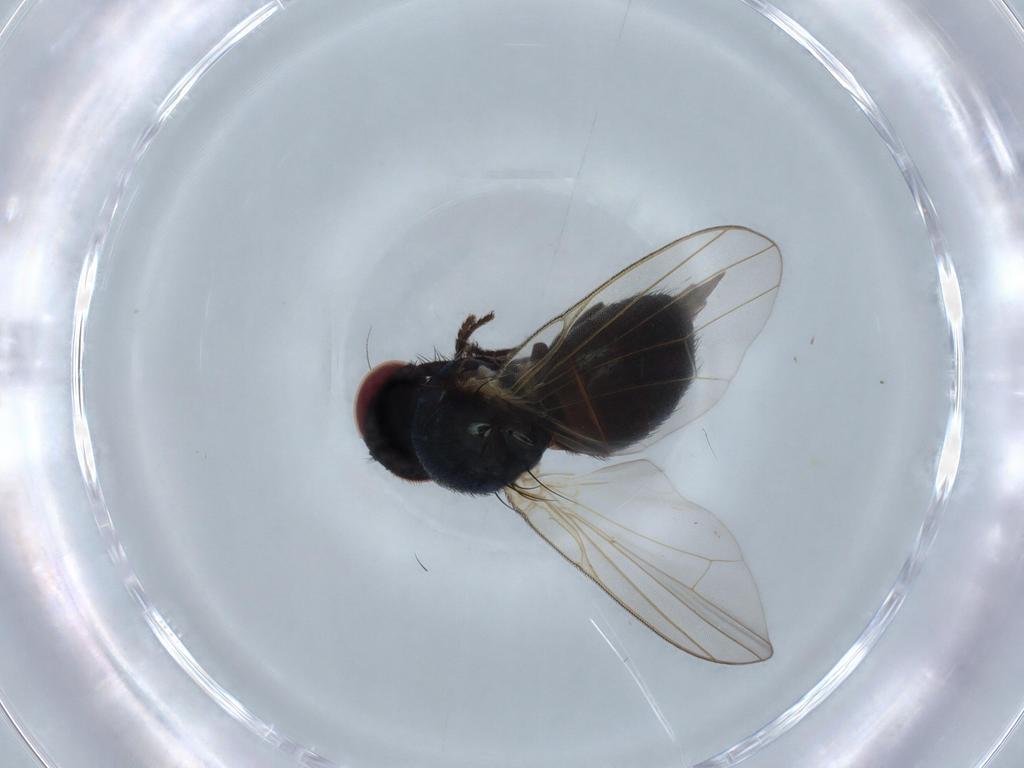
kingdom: Animalia
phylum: Arthropoda
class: Insecta
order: Diptera
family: Psychodidae
